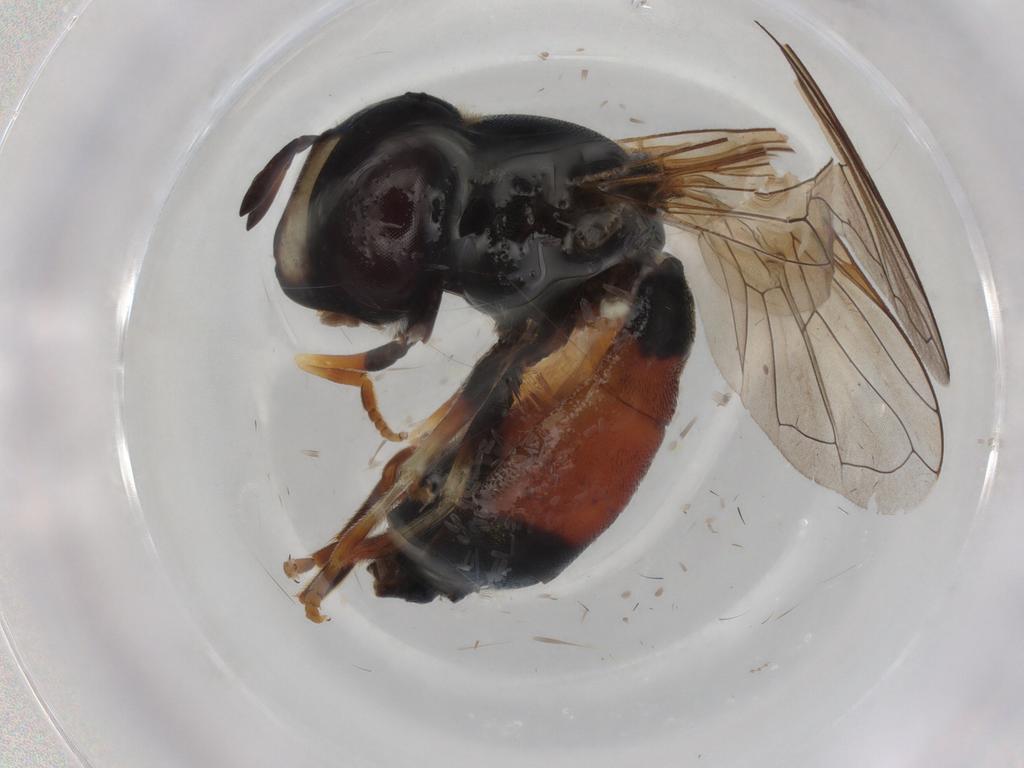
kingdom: Animalia
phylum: Arthropoda
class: Insecta
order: Diptera
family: Syrphidae
